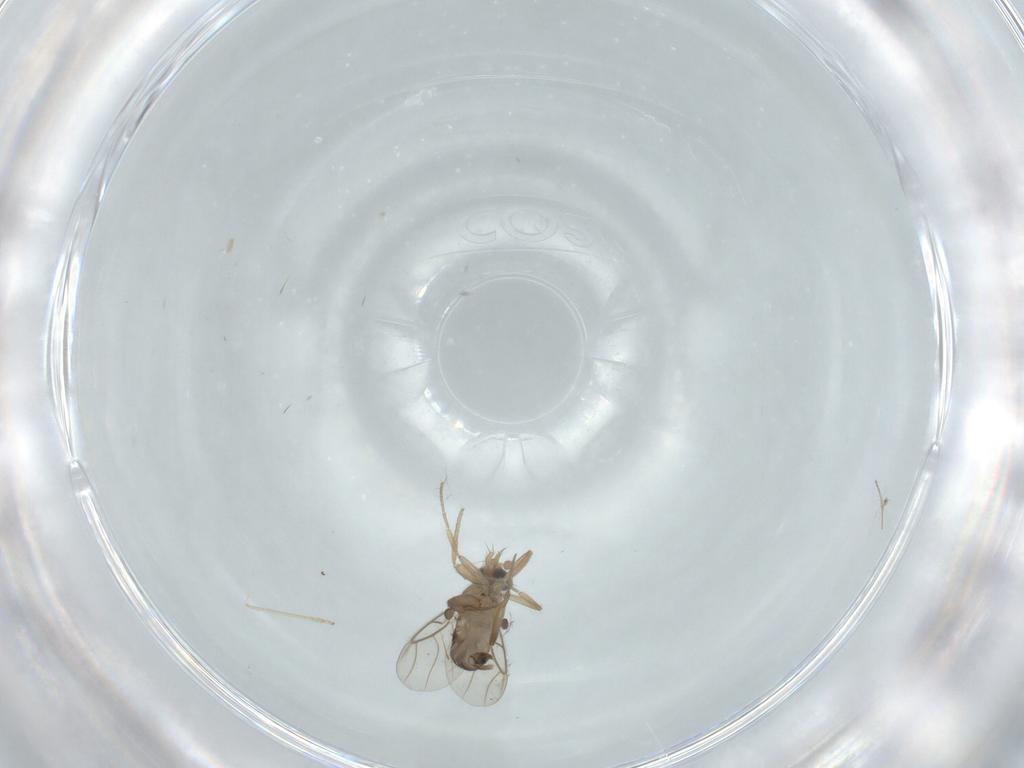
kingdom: Animalia
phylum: Arthropoda
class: Insecta
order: Diptera
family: Phoridae
